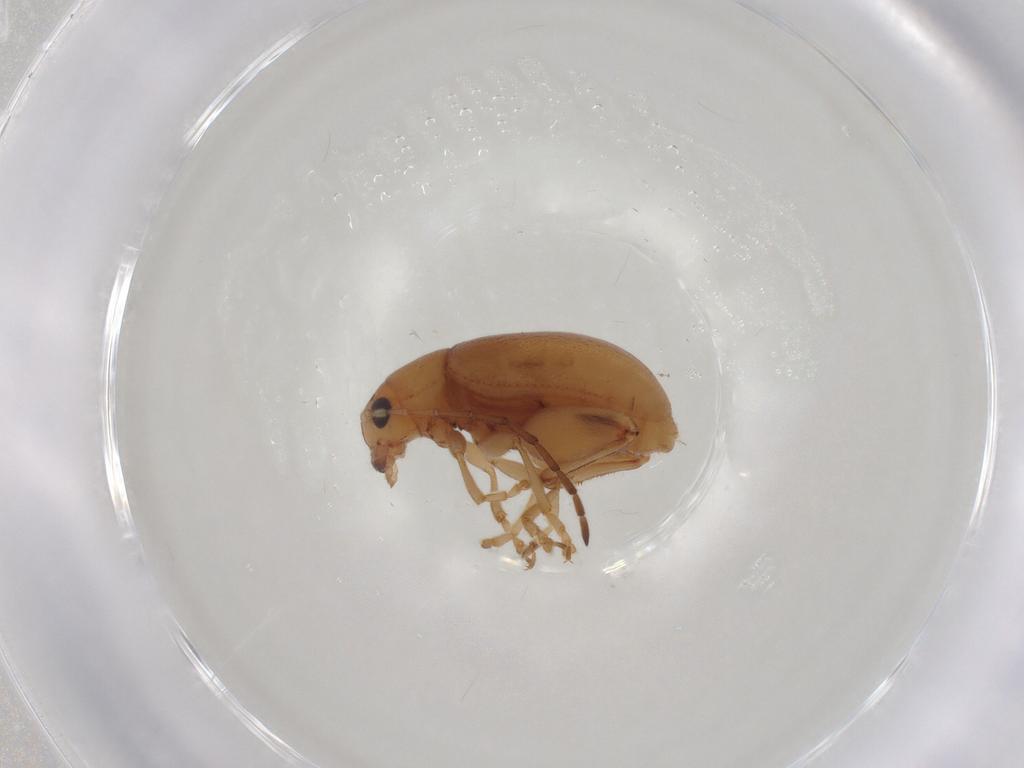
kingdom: Animalia
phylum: Arthropoda
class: Insecta
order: Coleoptera
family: Chrysomelidae
